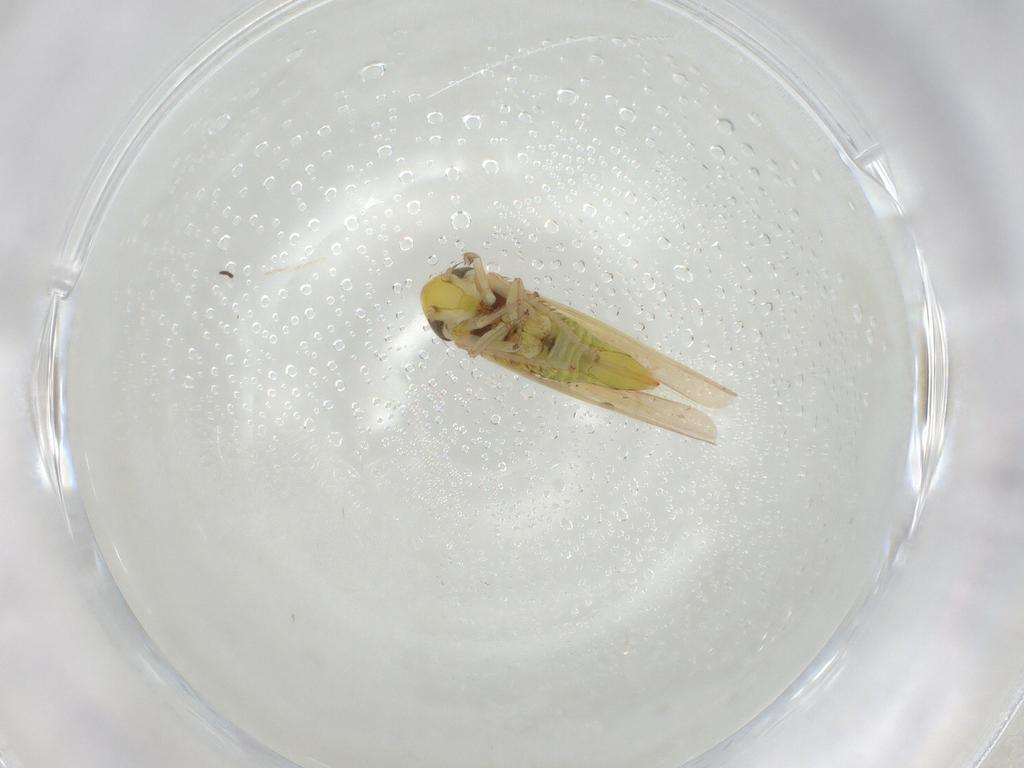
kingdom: Animalia
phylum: Arthropoda
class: Insecta
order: Hemiptera
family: Cicadellidae
